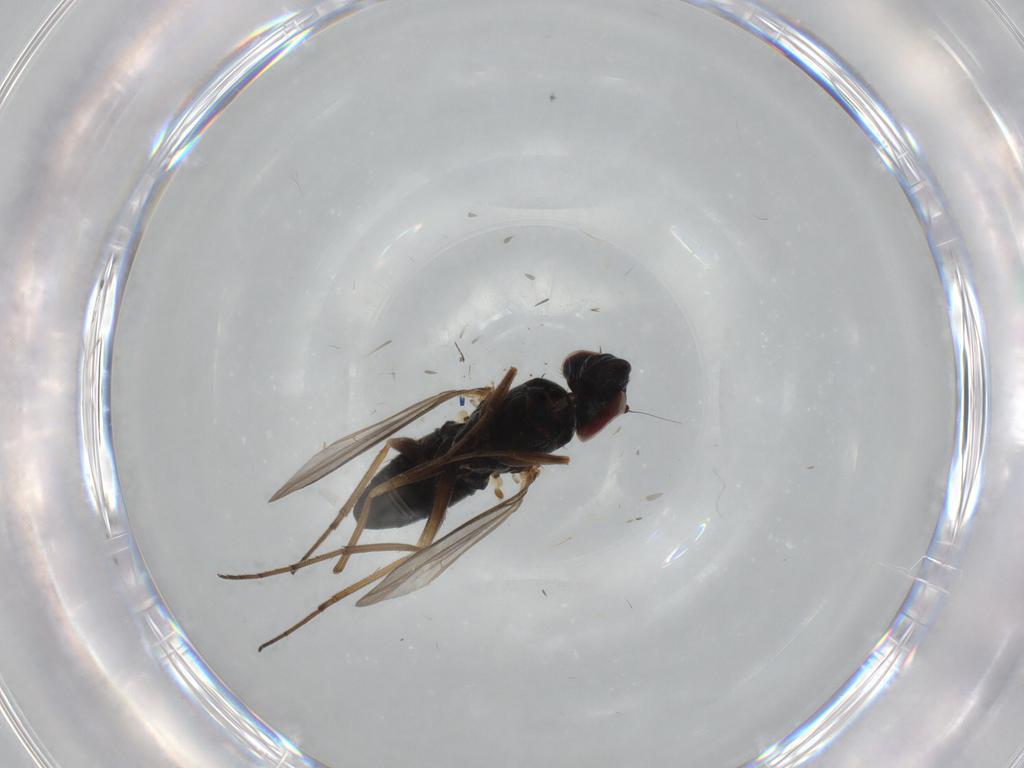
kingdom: Animalia
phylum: Arthropoda
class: Insecta
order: Diptera
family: Dolichopodidae
